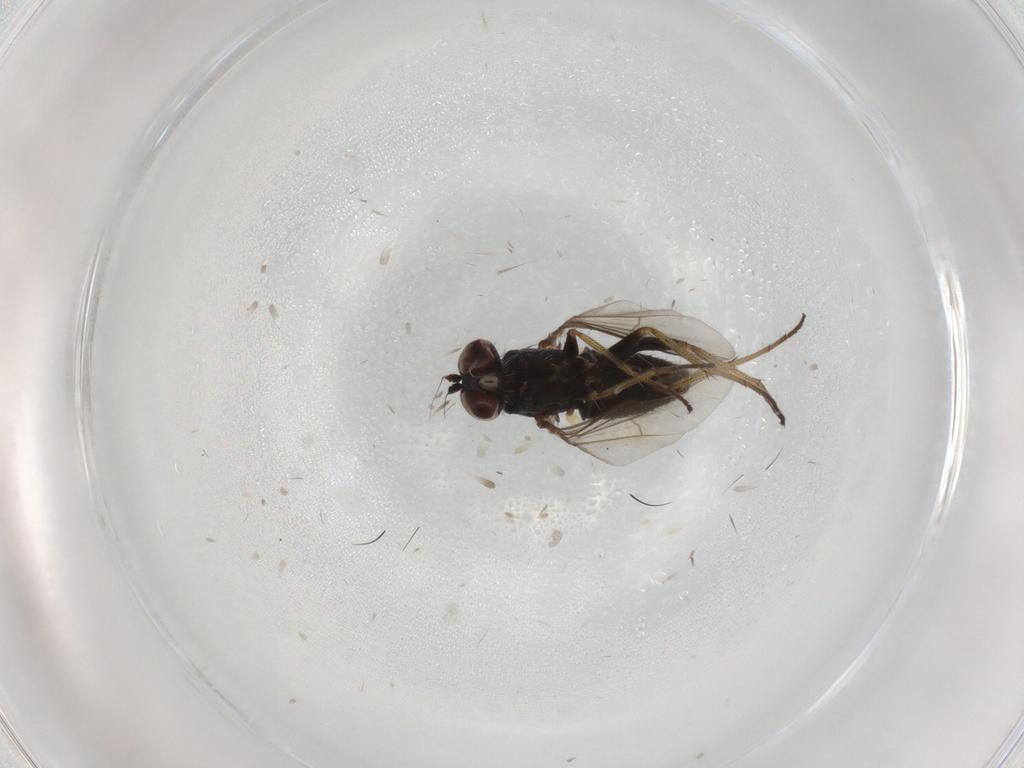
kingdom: Animalia
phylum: Arthropoda
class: Insecta
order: Diptera
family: Dolichopodidae
